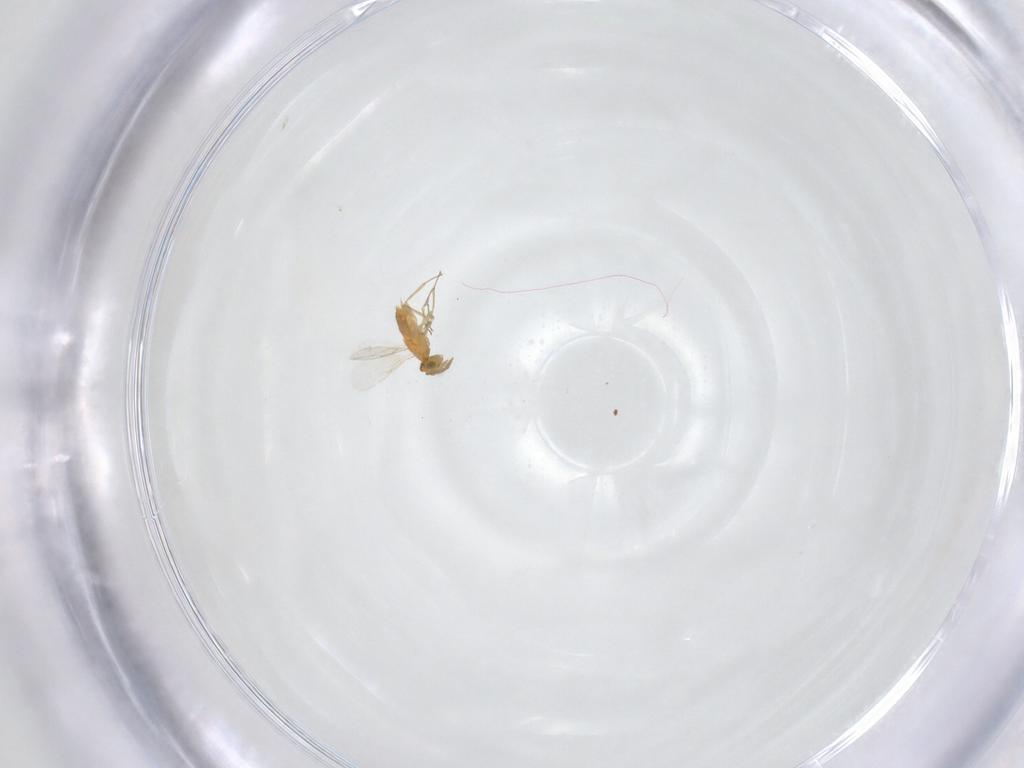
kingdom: Animalia
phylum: Arthropoda
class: Insecta
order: Hymenoptera
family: Aphelinidae
